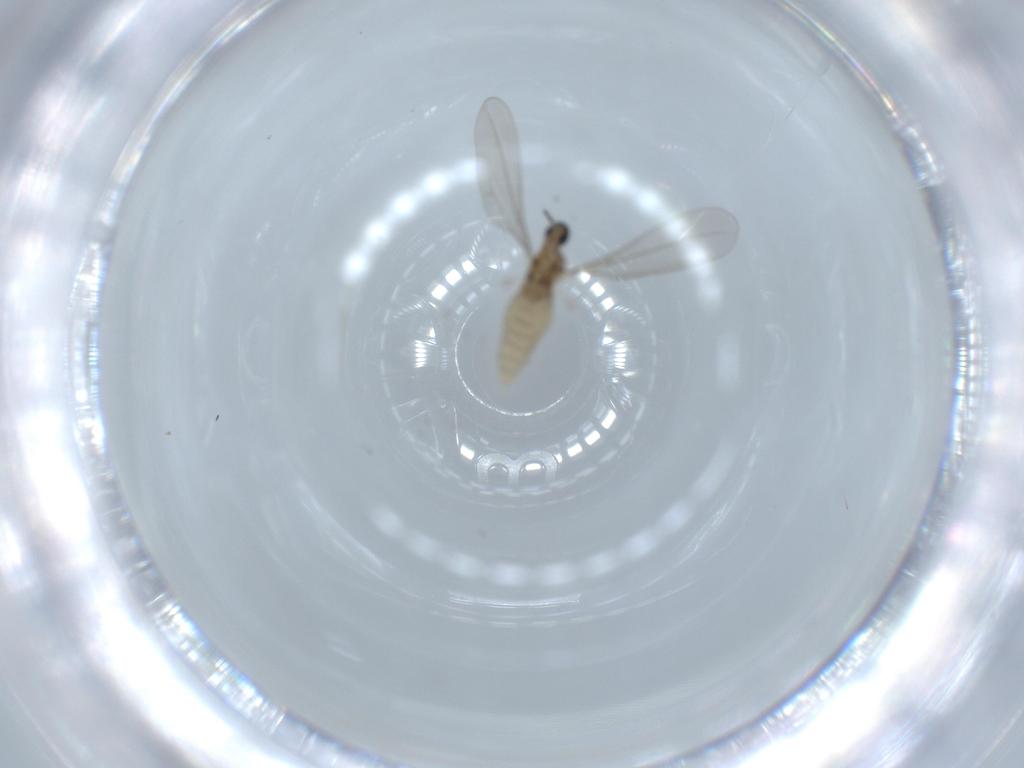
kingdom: Animalia
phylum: Arthropoda
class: Insecta
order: Diptera
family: Cecidomyiidae
